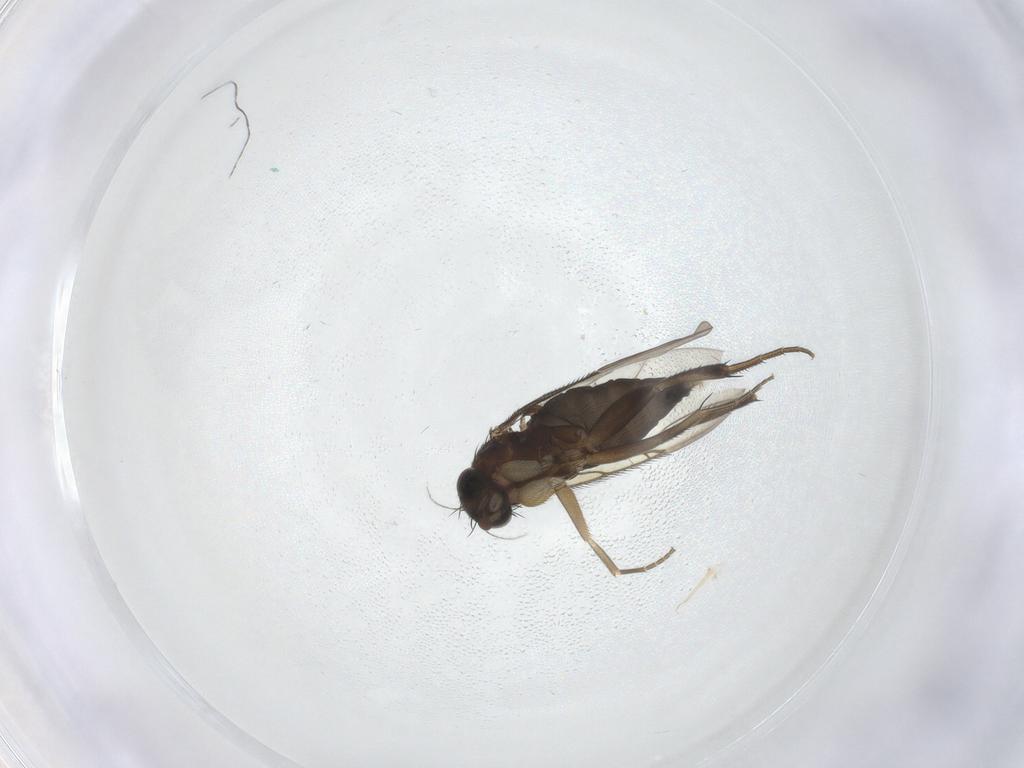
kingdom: Animalia
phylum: Arthropoda
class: Insecta
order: Diptera
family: Phoridae
